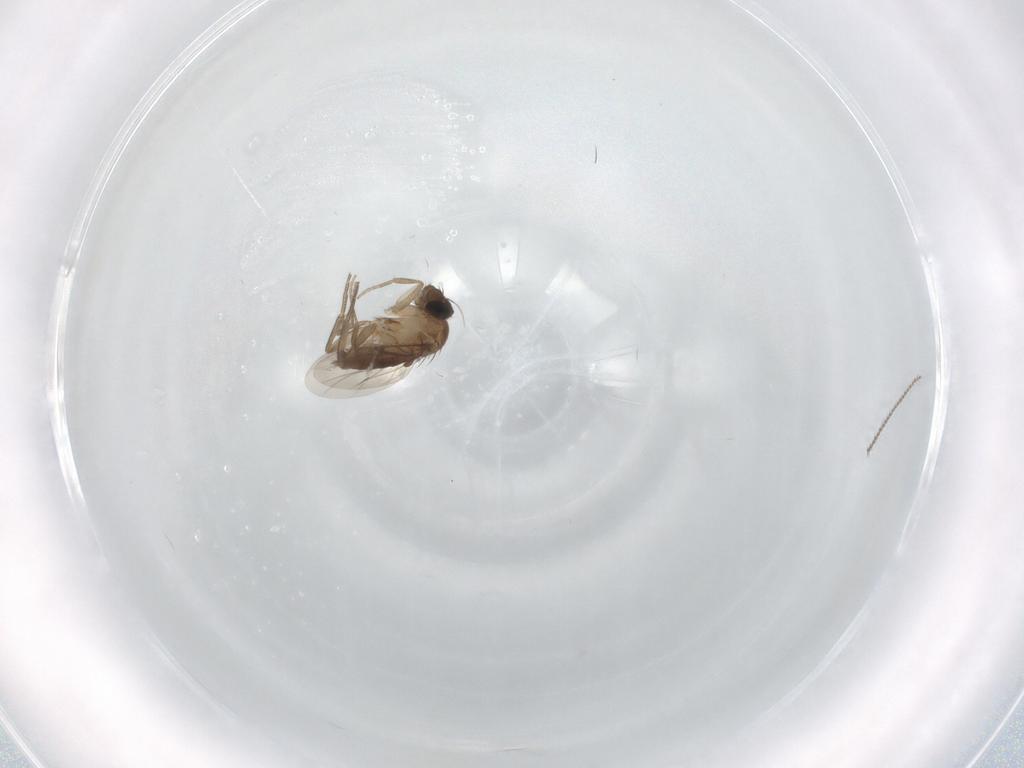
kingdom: Animalia
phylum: Arthropoda
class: Insecta
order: Diptera
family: Phoridae
